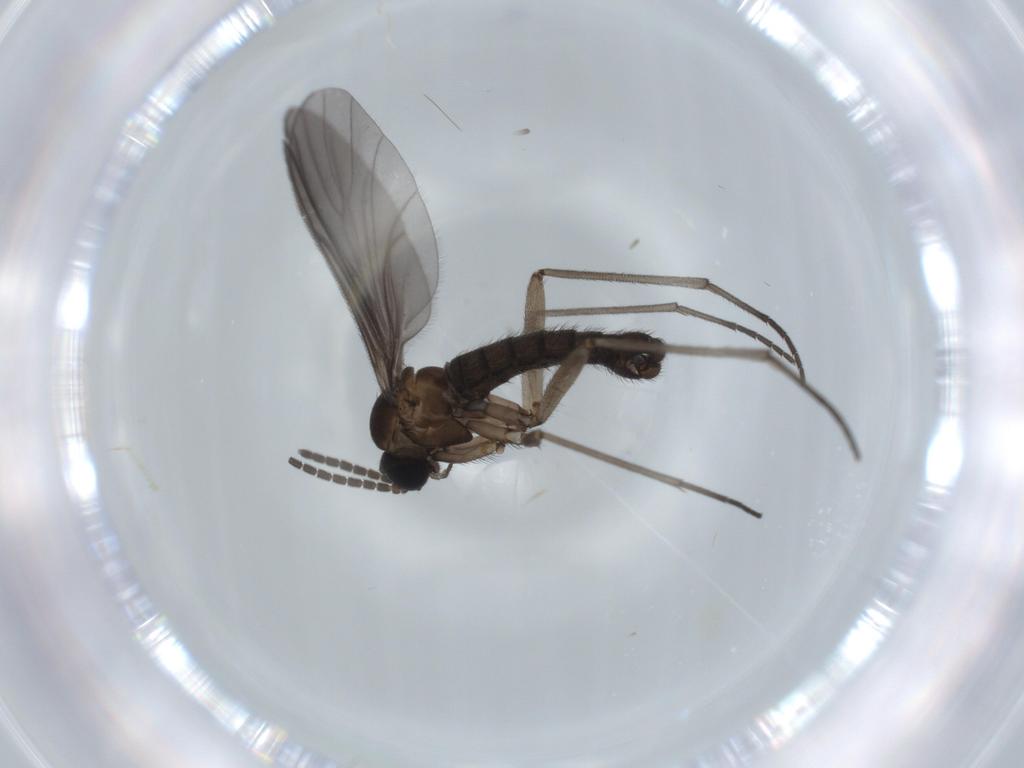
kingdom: Animalia
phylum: Arthropoda
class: Insecta
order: Diptera
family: Sciaridae
